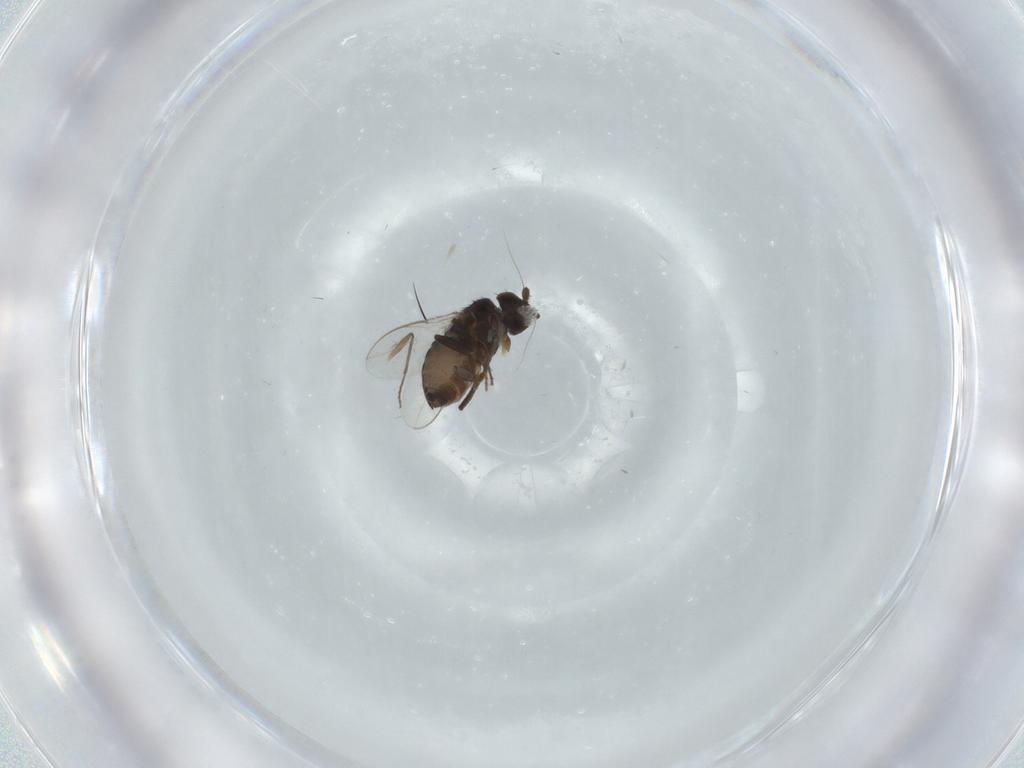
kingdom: Animalia
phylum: Arthropoda
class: Insecta
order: Diptera
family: Sphaeroceridae
